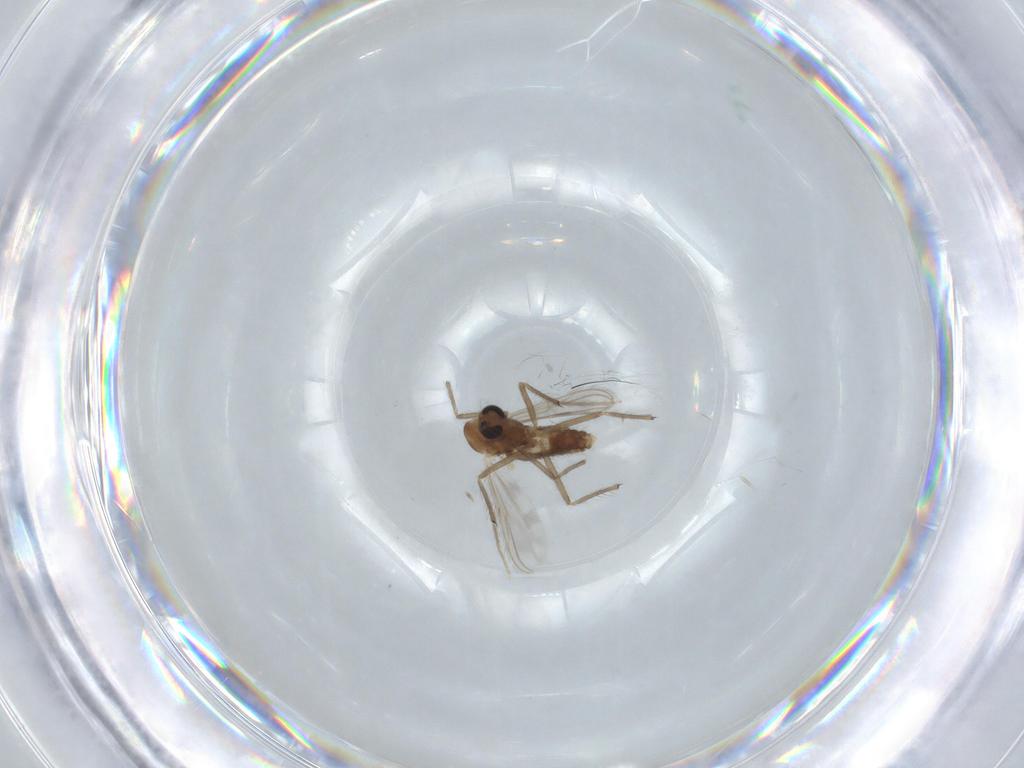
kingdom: Animalia
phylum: Arthropoda
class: Insecta
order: Diptera
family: Chironomidae
